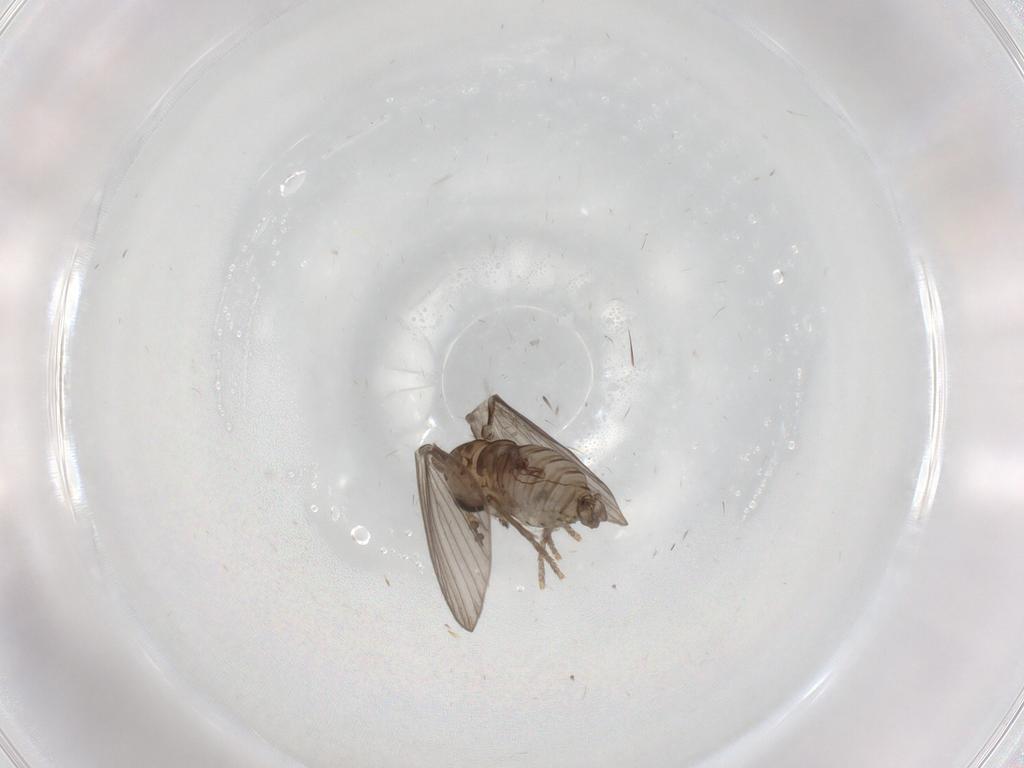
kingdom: Animalia
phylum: Arthropoda
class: Insecta
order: Diptera
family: Psychodidae
